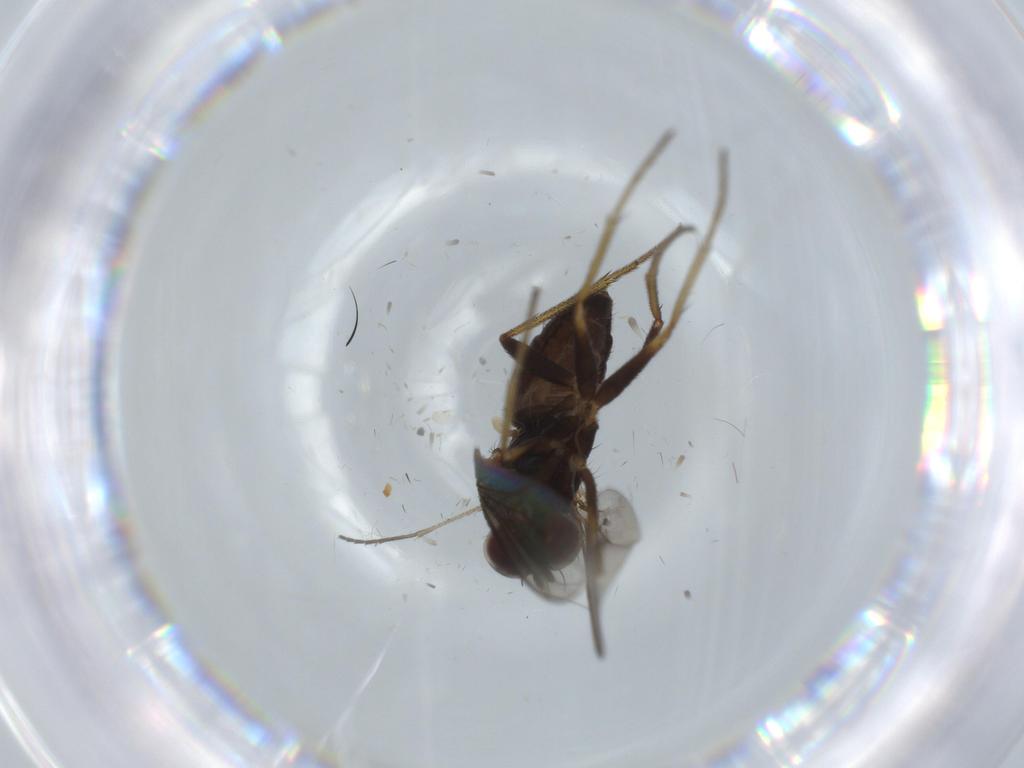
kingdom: Animalia
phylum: Arthropoda
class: Insecta
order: Diptera
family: Dolichopodidae
